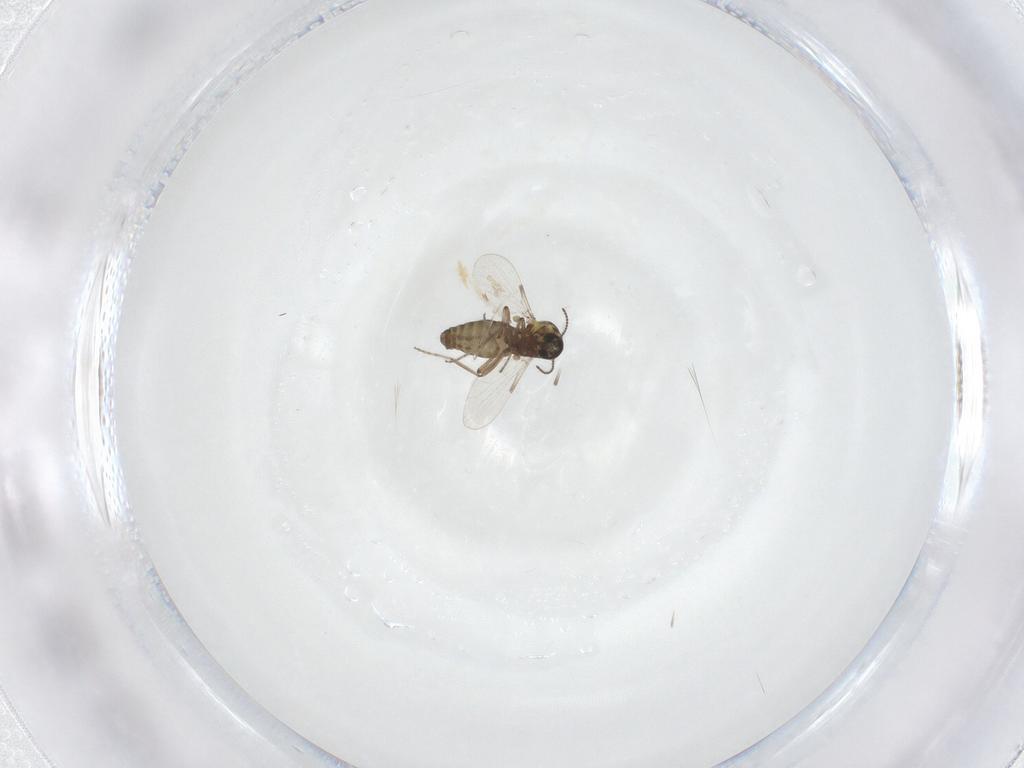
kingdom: Animalia
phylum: Arthropoda
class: Insecta
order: Diptera
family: Ceratopogonidae
